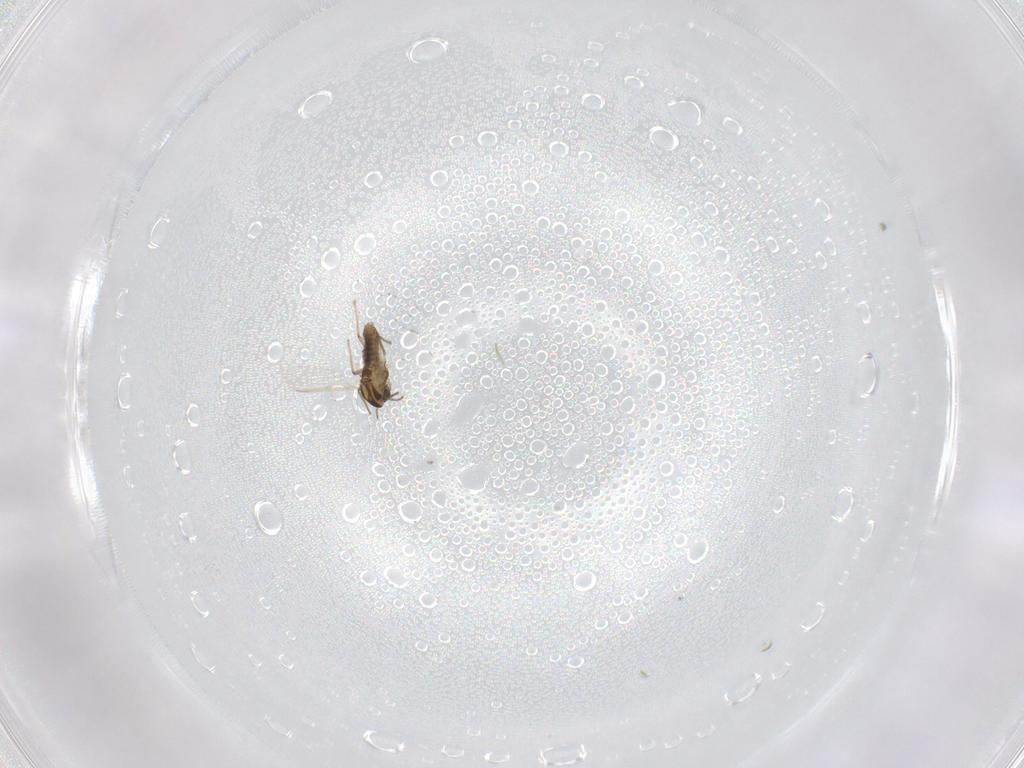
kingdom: Animalia
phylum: Arthropoda
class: Insecta
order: Diptera
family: Chironomidae
